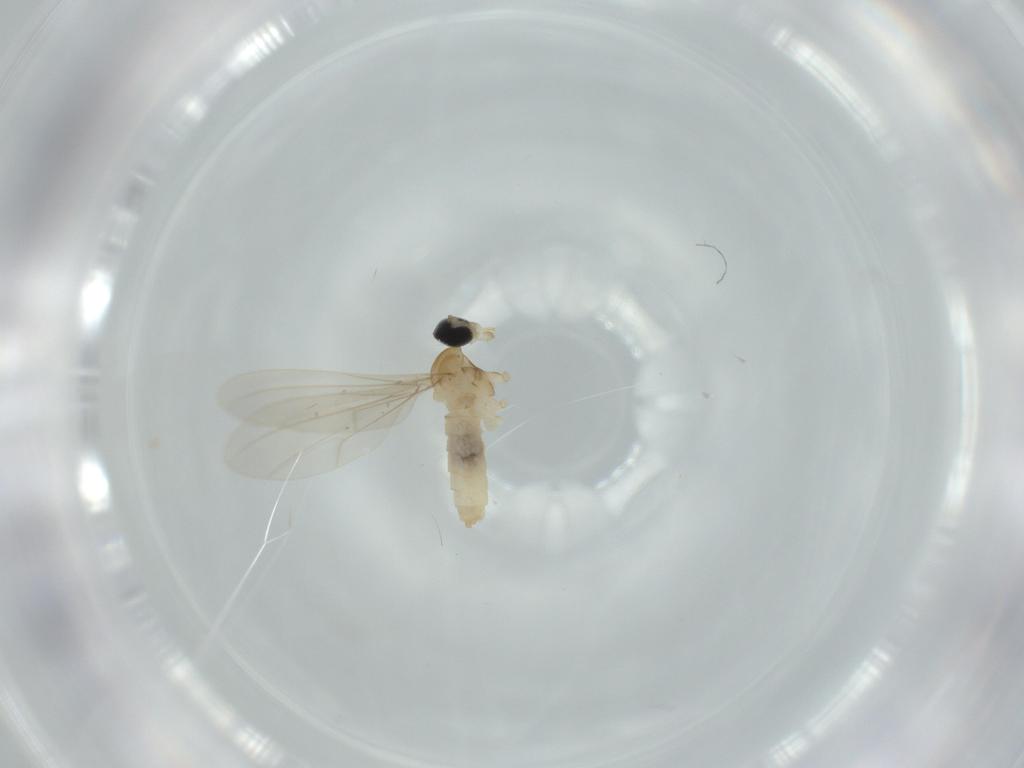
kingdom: Animalia
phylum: Arthropoda
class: Insecta
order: Diptera
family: Cecidomyiidae
